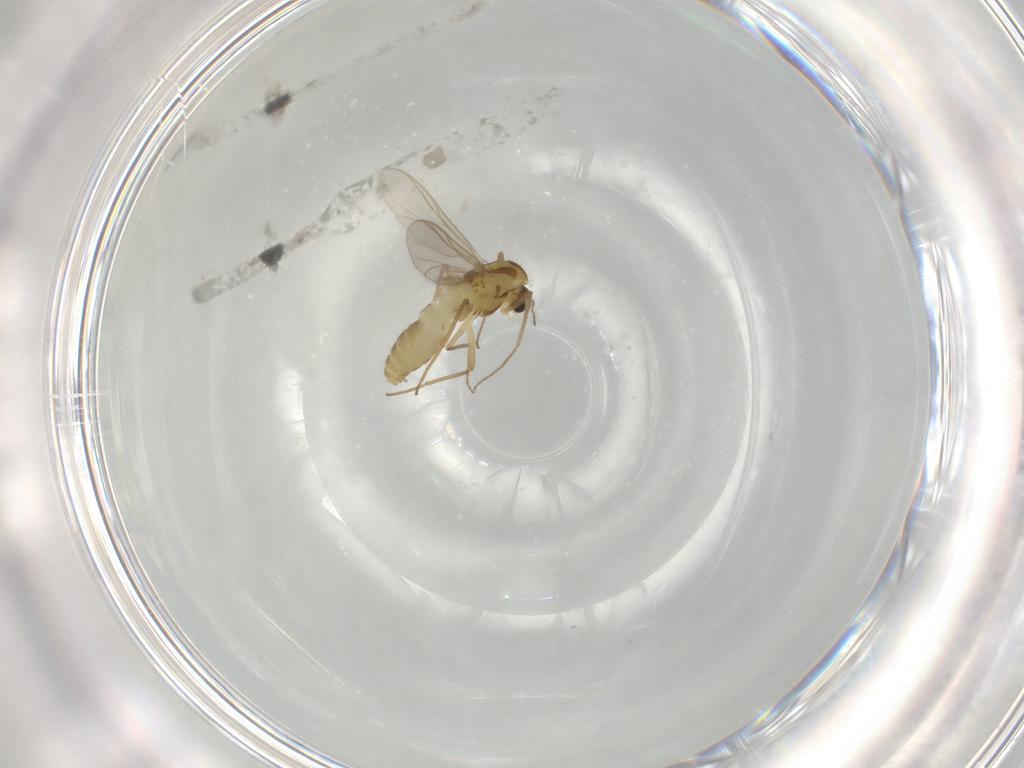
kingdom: Animalia
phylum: Arthropoda
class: Insecta
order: Diptera
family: Chironomidae
